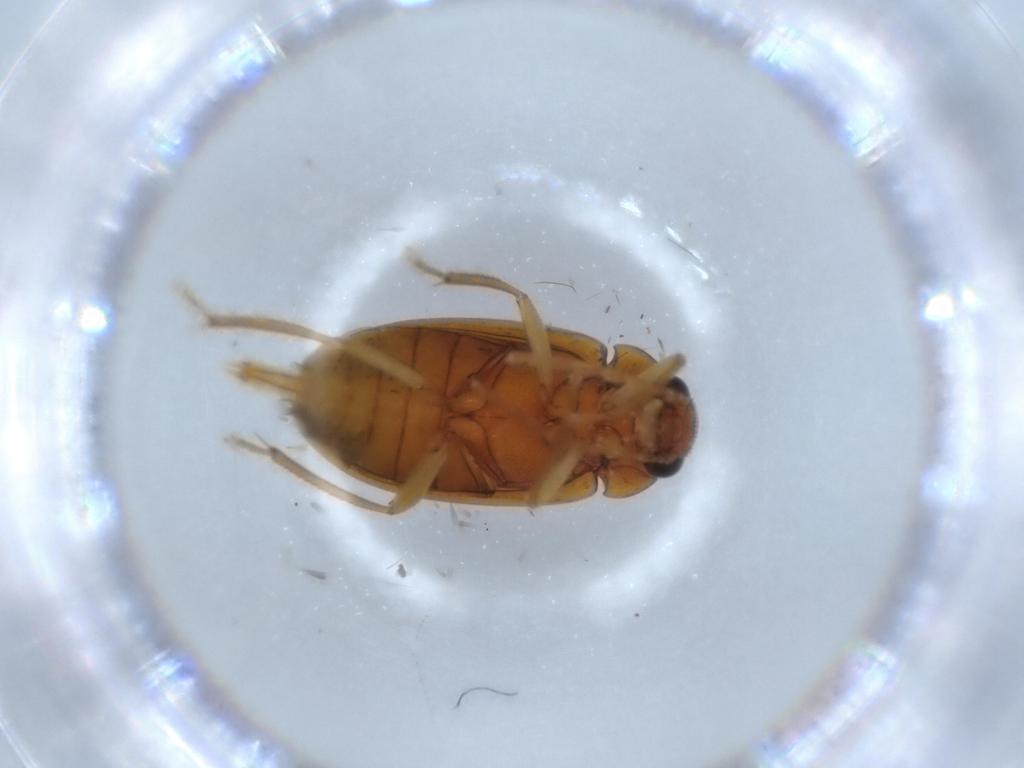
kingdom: Animalia
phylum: Arthropoda
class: Insecta
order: Coleoptera
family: Ptilodactylidae
